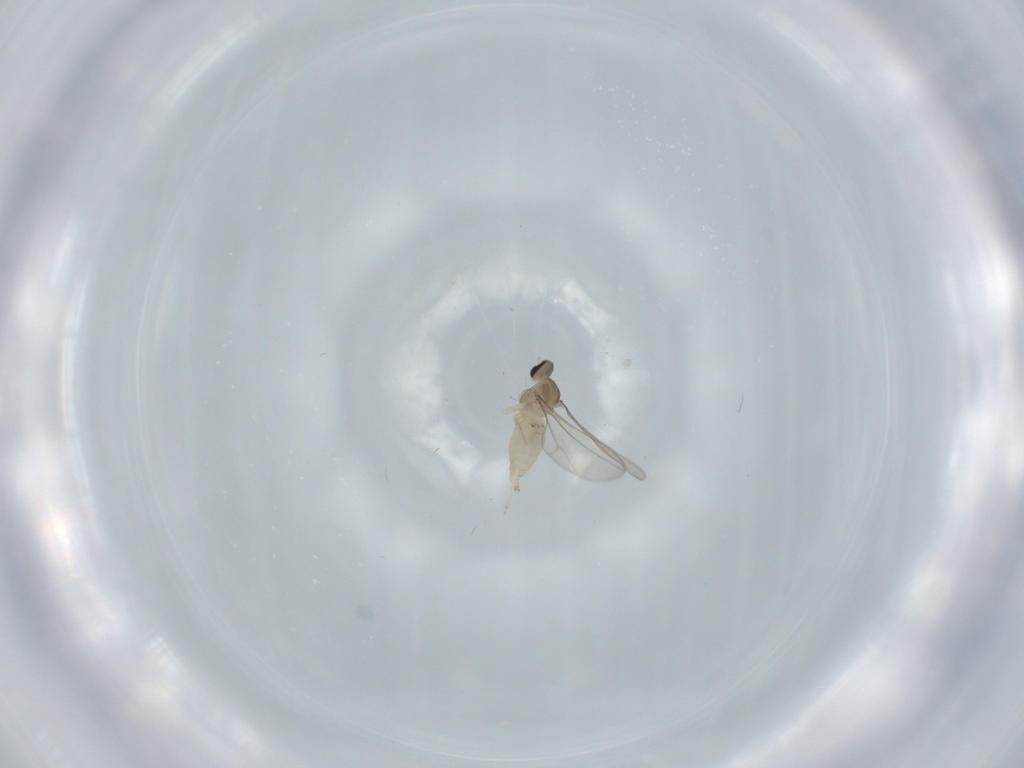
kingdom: Animalia
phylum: Arthropoda
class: Insecta
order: Diptera
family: Cecidomyiidae
